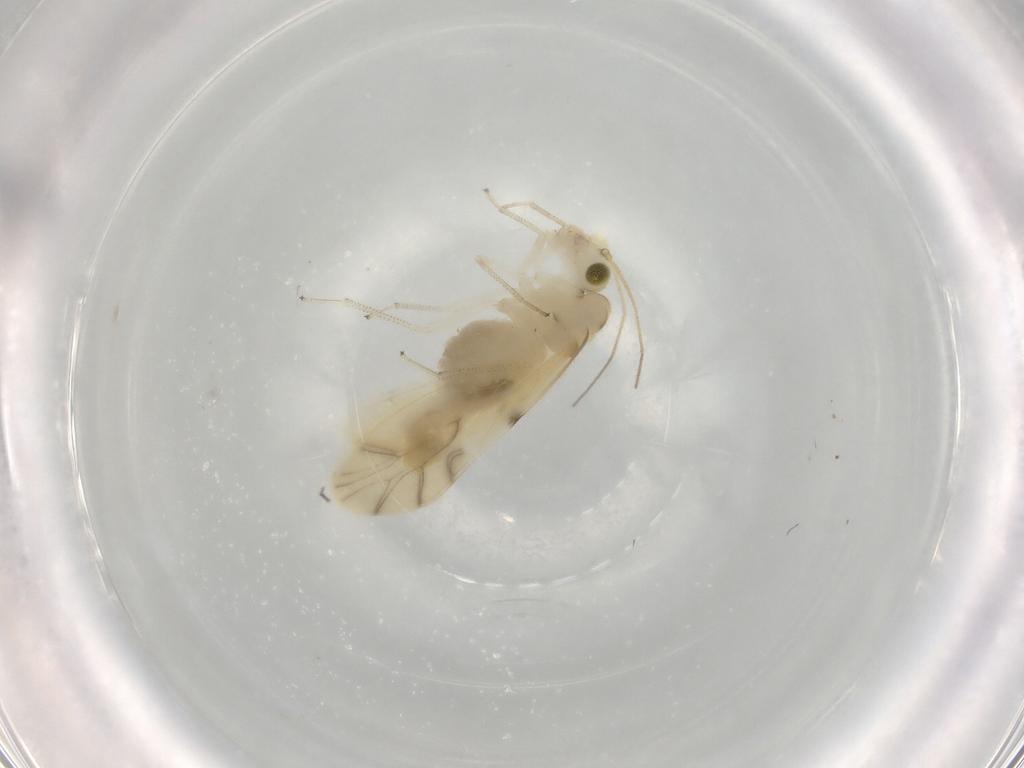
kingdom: Animalia
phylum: Arthropoda
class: Insecta
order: Psocodea
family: Caeciliusidae
